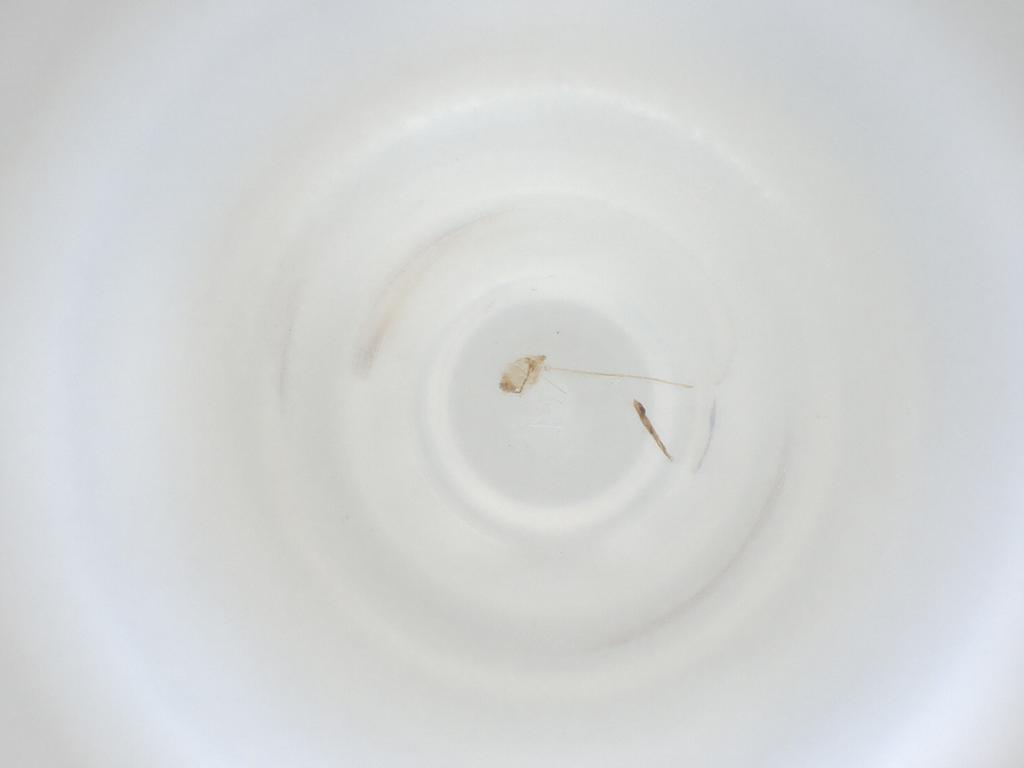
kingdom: Animalia
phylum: Arthropoda
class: Insecta
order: Diptera
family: Cecidomyiidae
